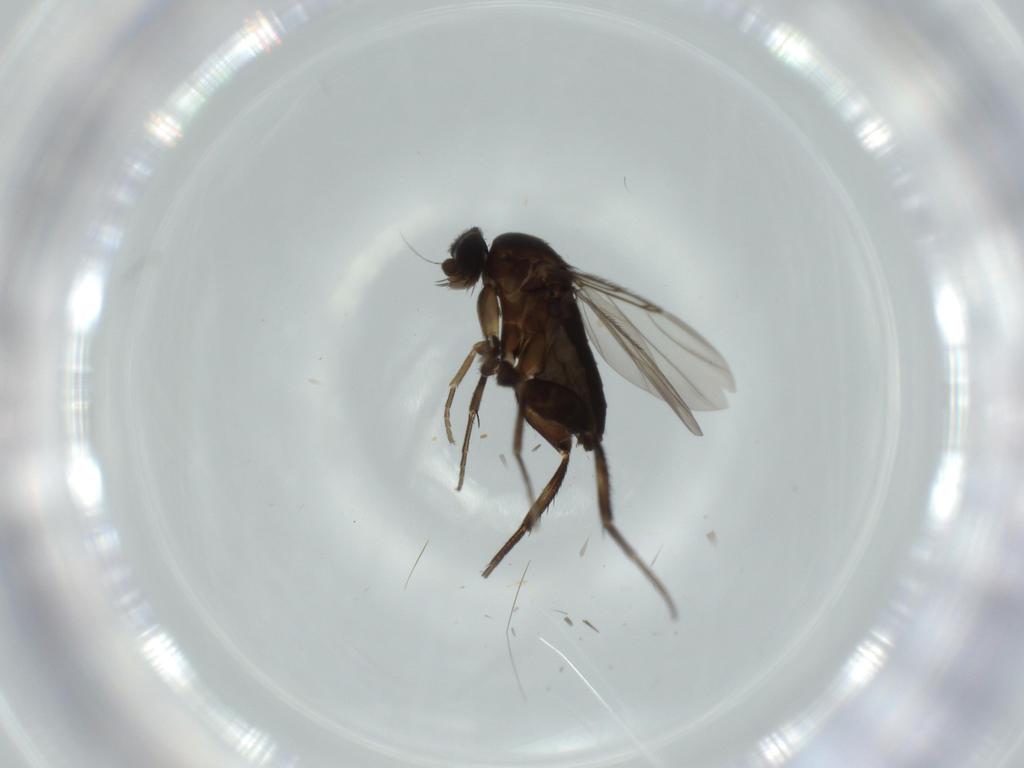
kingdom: Animalia
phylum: Arthropoda
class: Insecta
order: Diptera
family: Phoridae
